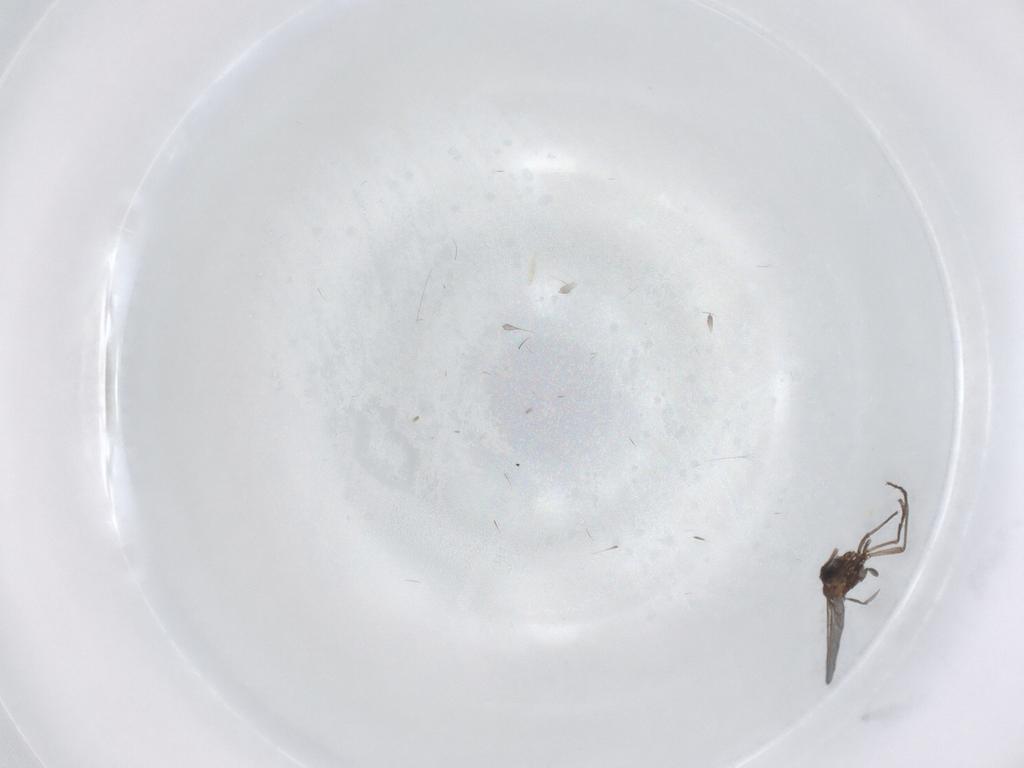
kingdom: Animalia
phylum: Arthropoda
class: Insecta
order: Diptera
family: Sciaridae
